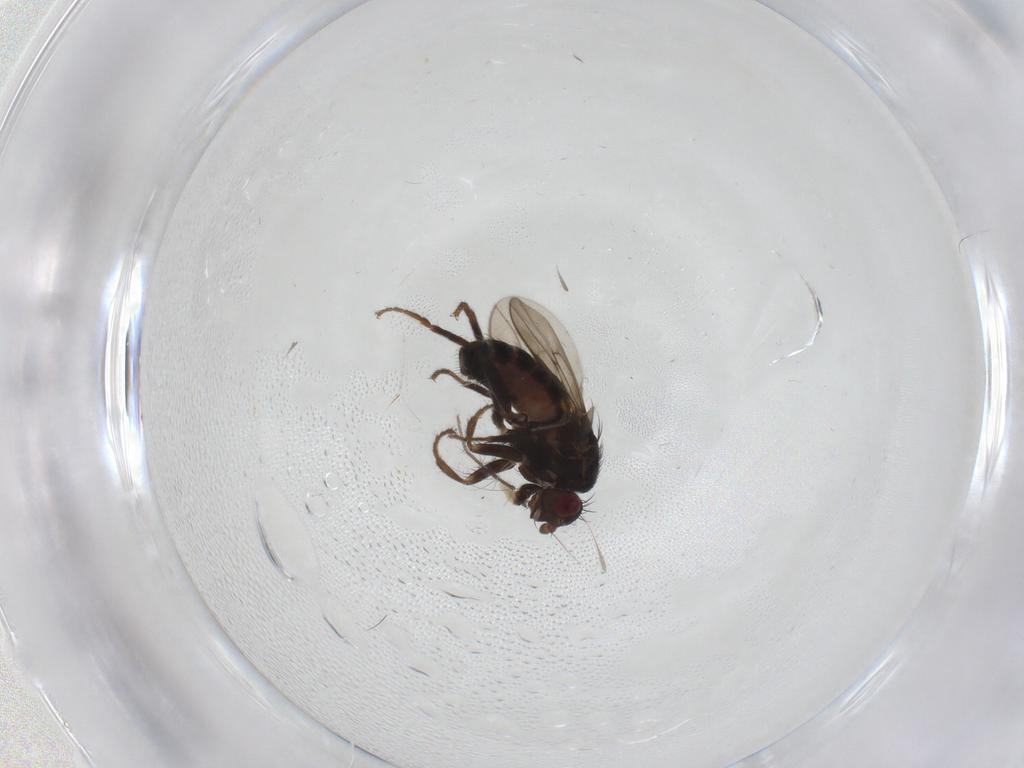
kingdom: Animalia
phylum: Arthropoda
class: Insecta
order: Diptera
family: Sphaeroceridae
